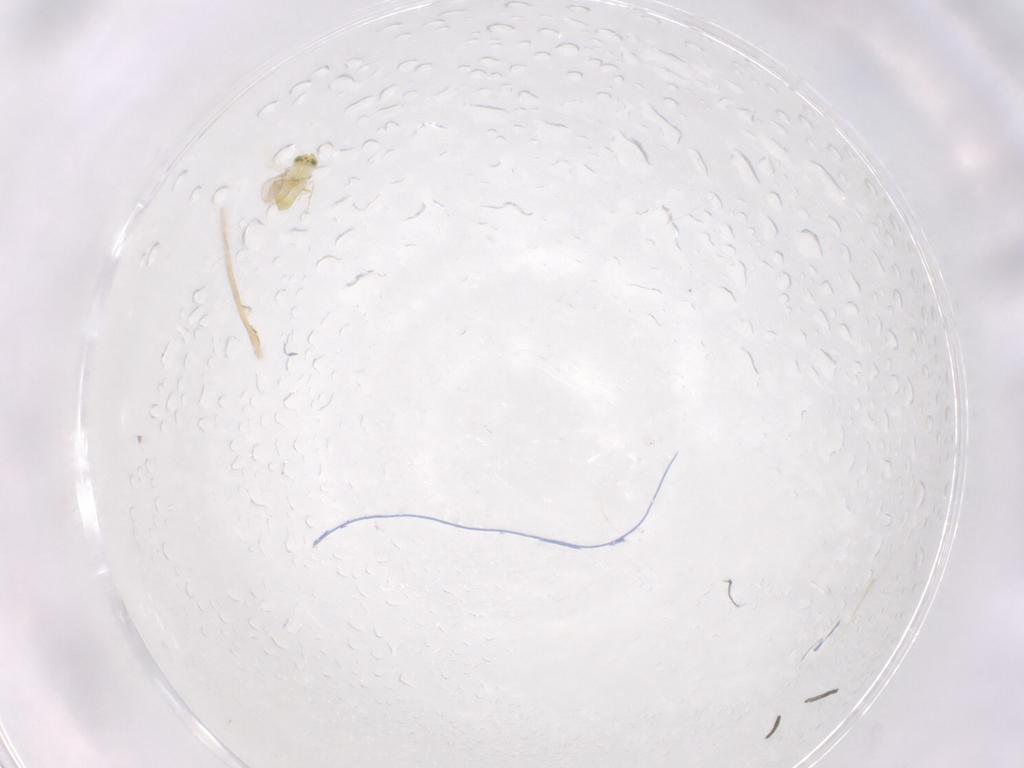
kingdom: Animalia
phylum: Arthropoda
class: Insecta
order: Hymenoptera
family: Aphelinidae
